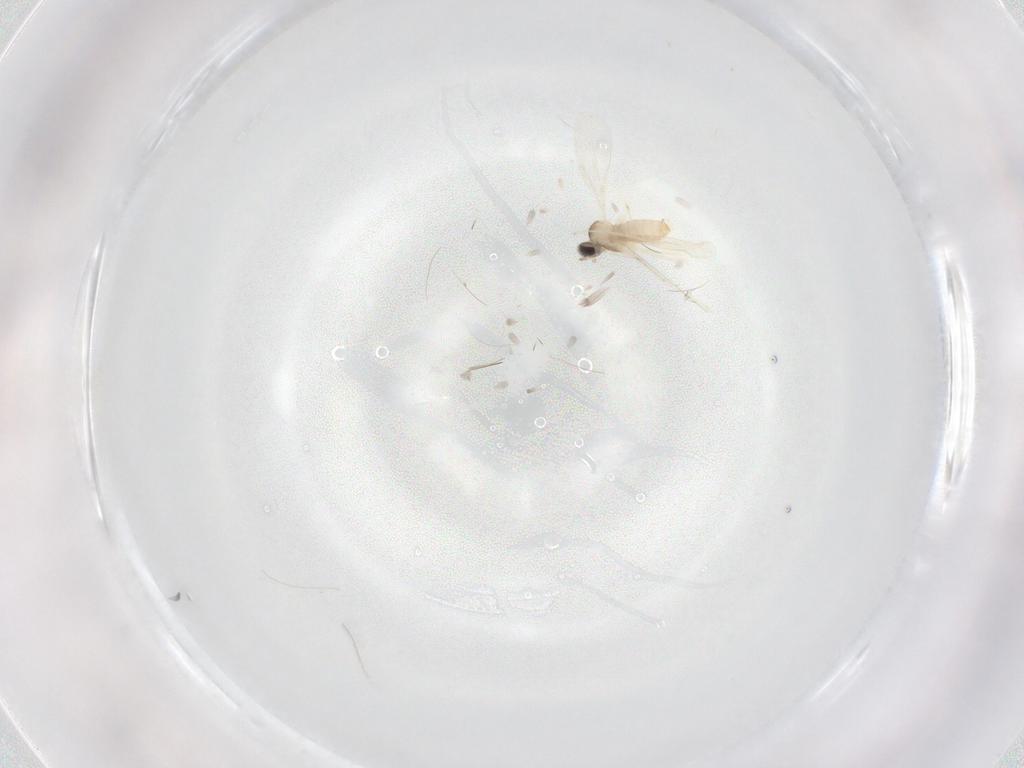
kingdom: Animalia
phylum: Arthropoda
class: Insecta
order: Diptera
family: Cecidomyiidae
